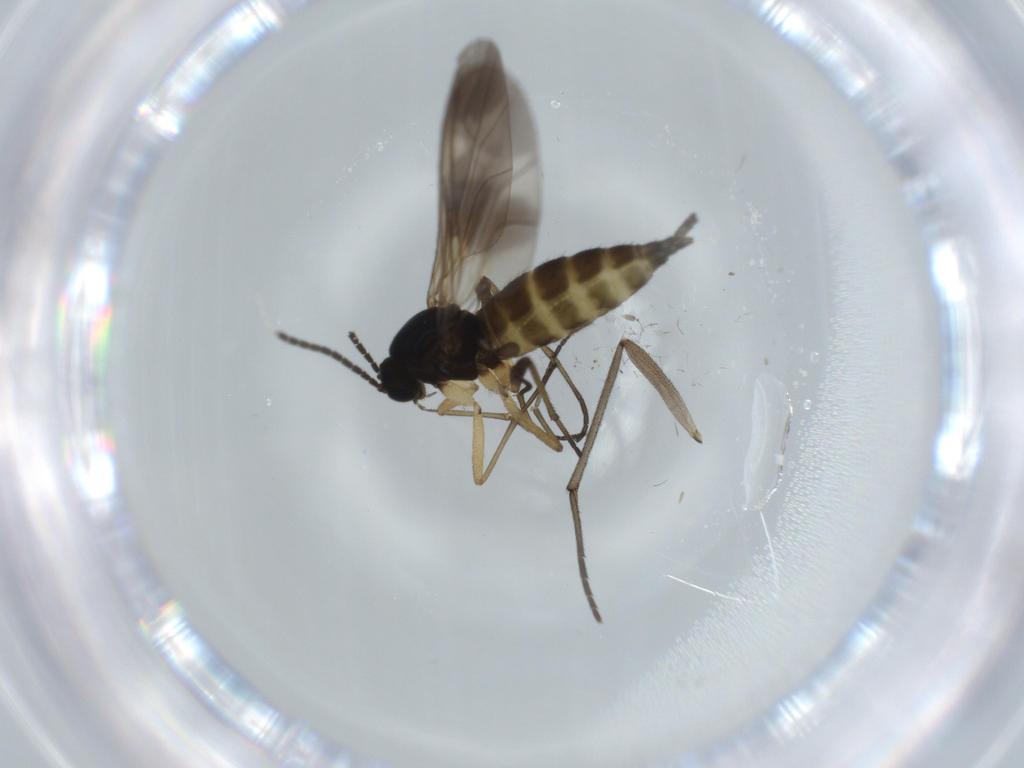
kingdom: Animalia
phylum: Arthropoda
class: Insecta
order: Diptera
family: Sciaridae
